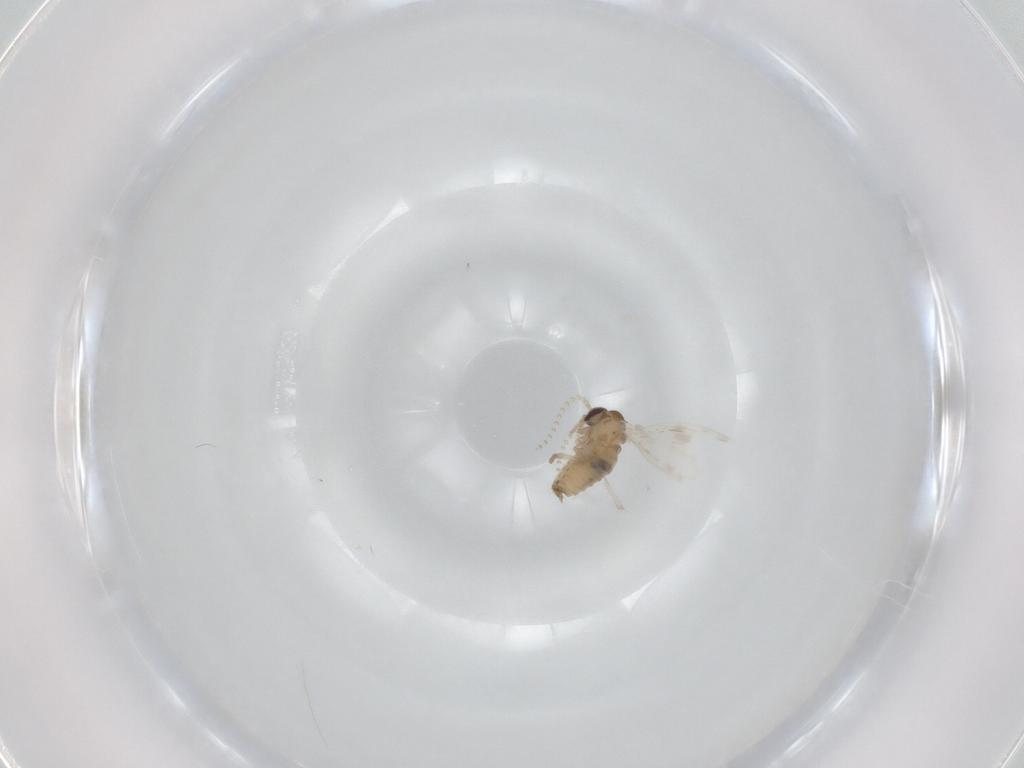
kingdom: Animalia
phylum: Arthropoda
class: Insecta
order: Diptera
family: Psychodidae
